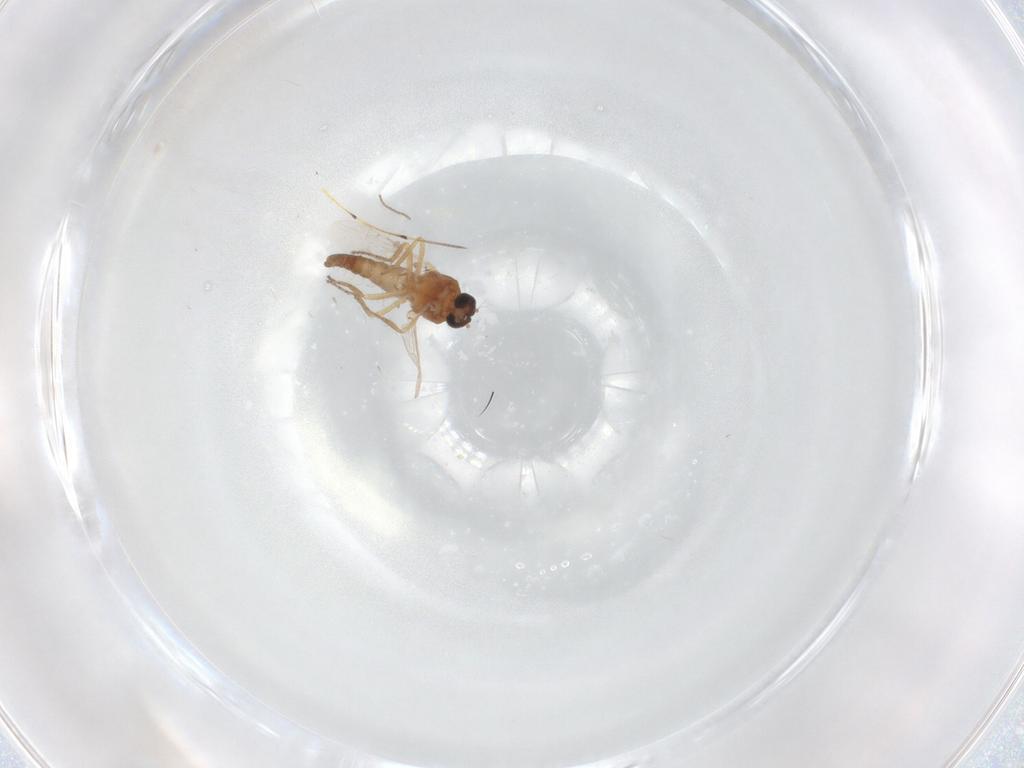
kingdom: Animalia
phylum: Arthropoda
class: Insecta
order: Diptera
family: Ceratopogonidae
